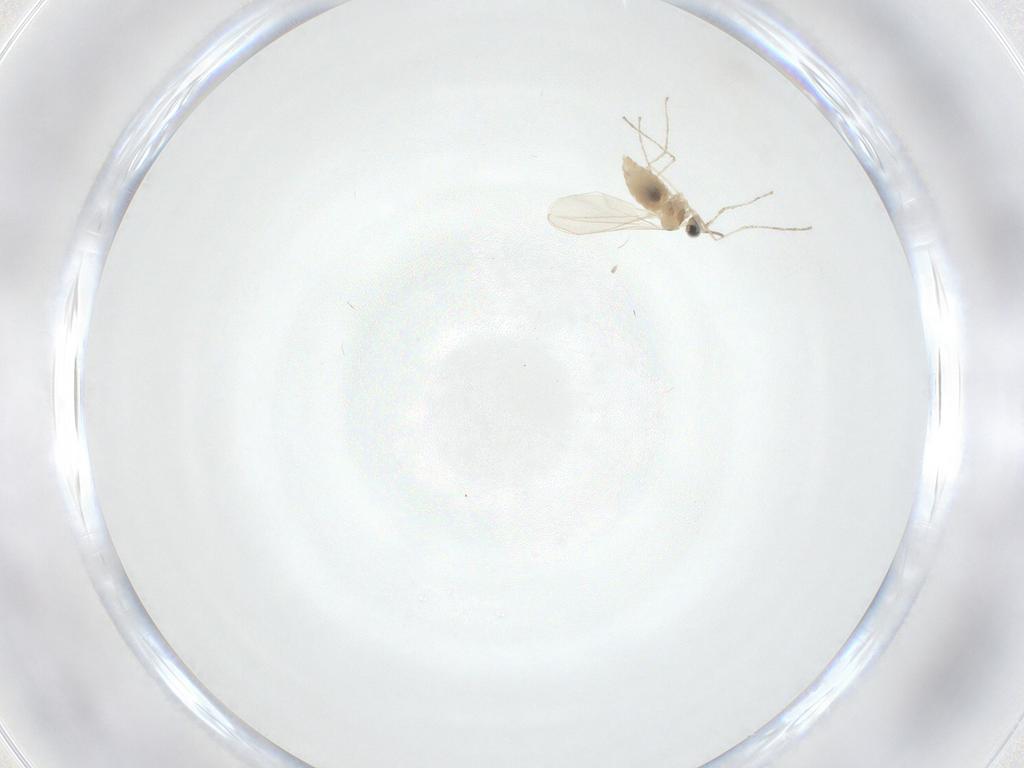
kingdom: Animalia
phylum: Arthropoda
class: Insecta
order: Diptera
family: Cecidomyiidae
